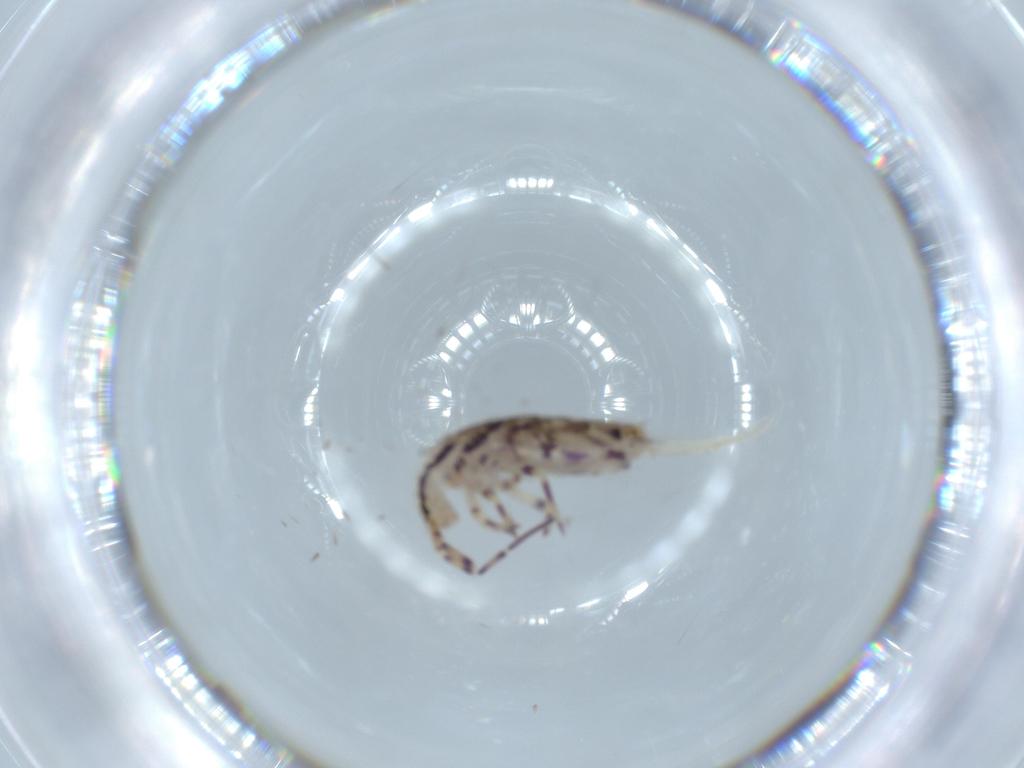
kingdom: Animalia
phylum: Arthropoda
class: Collembola
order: Entomobryomorpha
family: Entomobryidae
